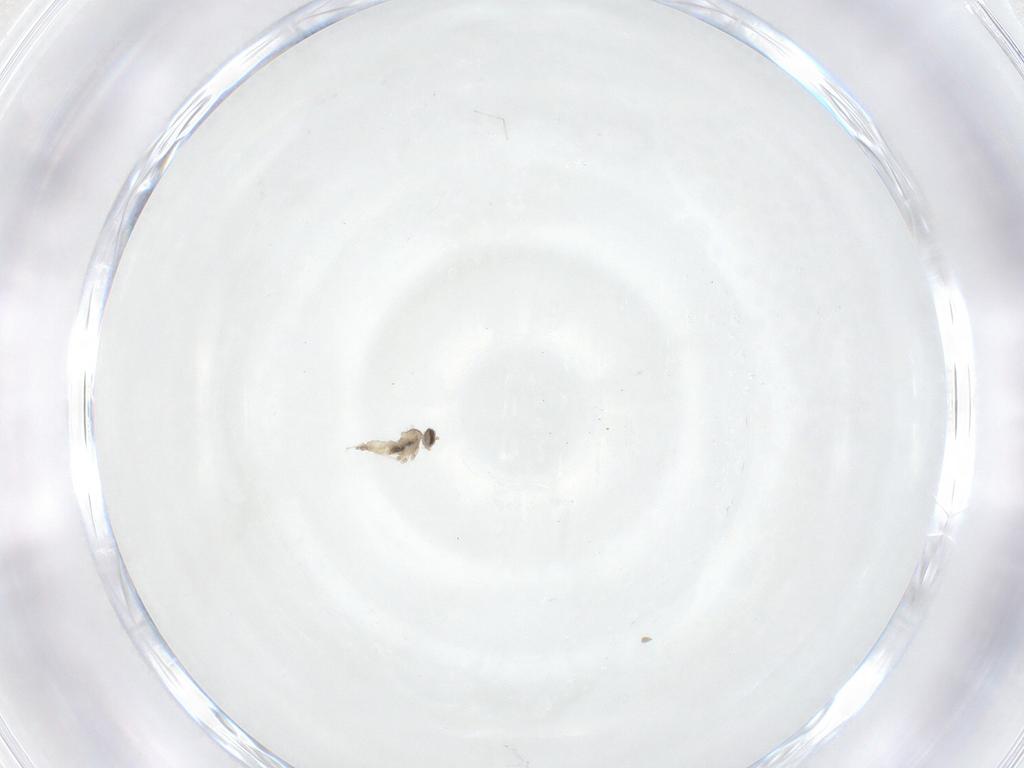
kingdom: Animalia
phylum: Arthropoda
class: Insecta
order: Diptera
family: Cecidomyiidae
